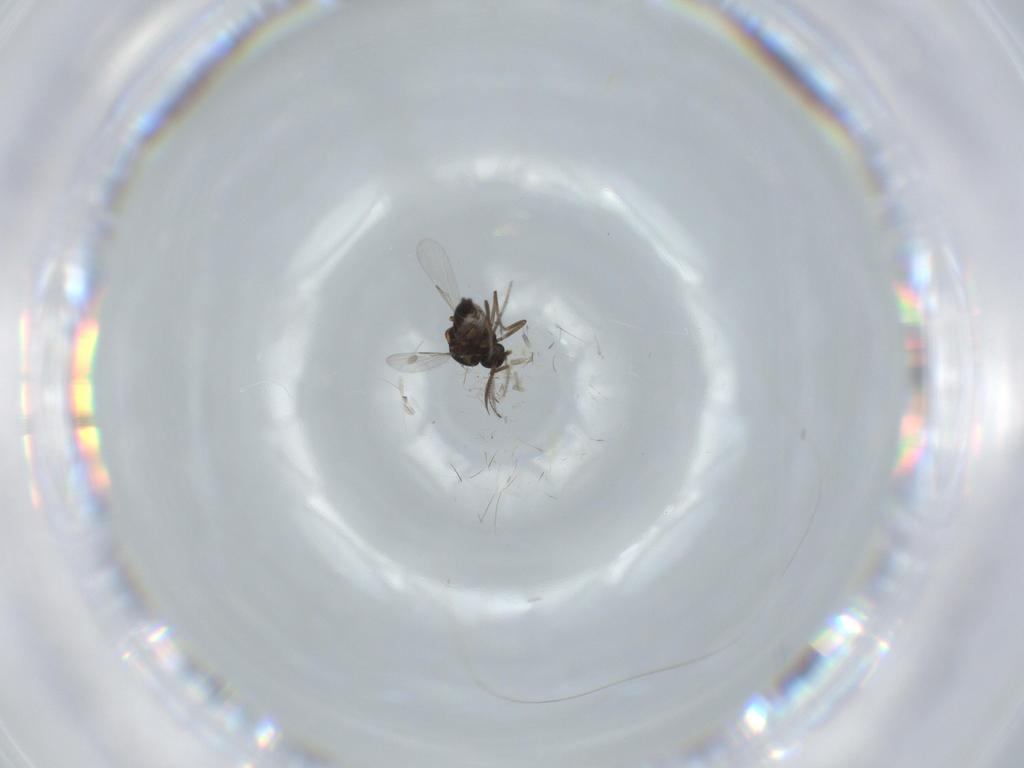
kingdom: Animalia
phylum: Arthropoda
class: Insecta
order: Diptera
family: Ceratopogonidae
